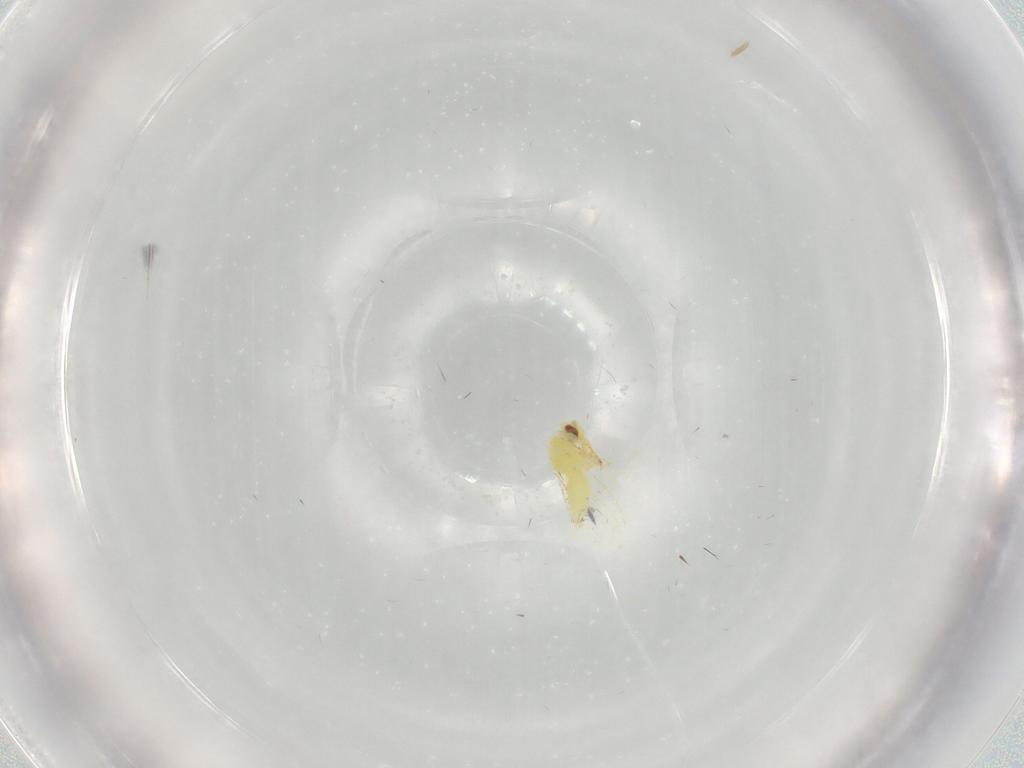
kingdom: Animalia
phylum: Arthropoda
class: Insecta
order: Hemiptera
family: Aleyrodidae
